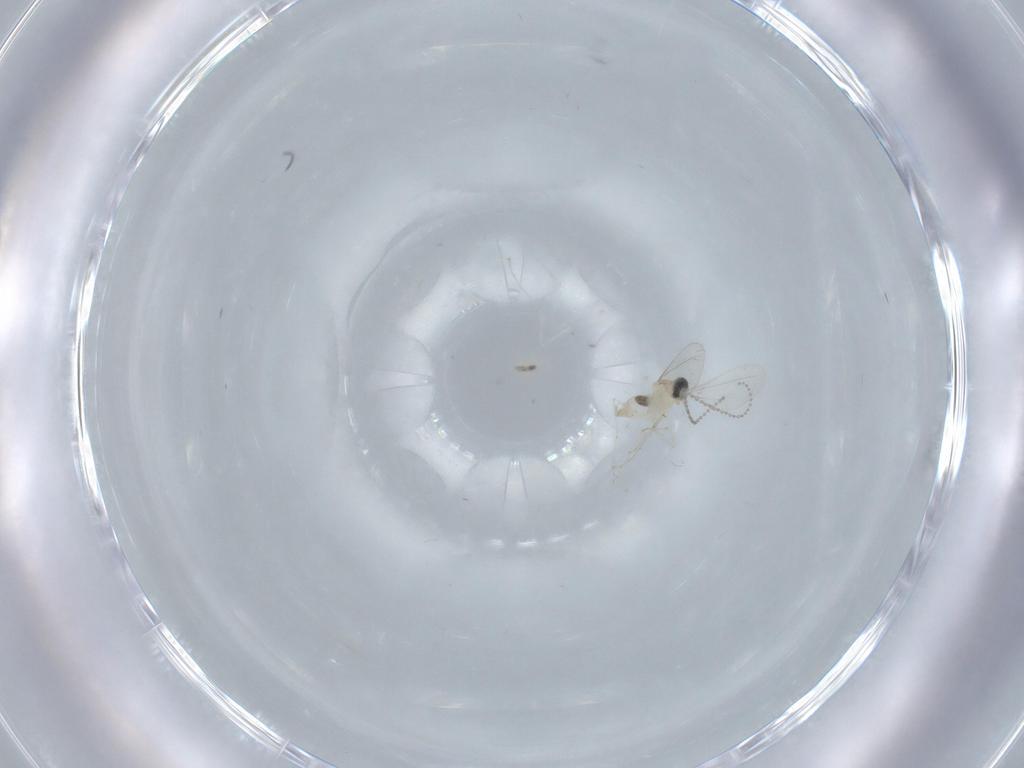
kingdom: Animalia
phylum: Arthropoda
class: Insecta
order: Diptera
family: Cecidomyiidae
